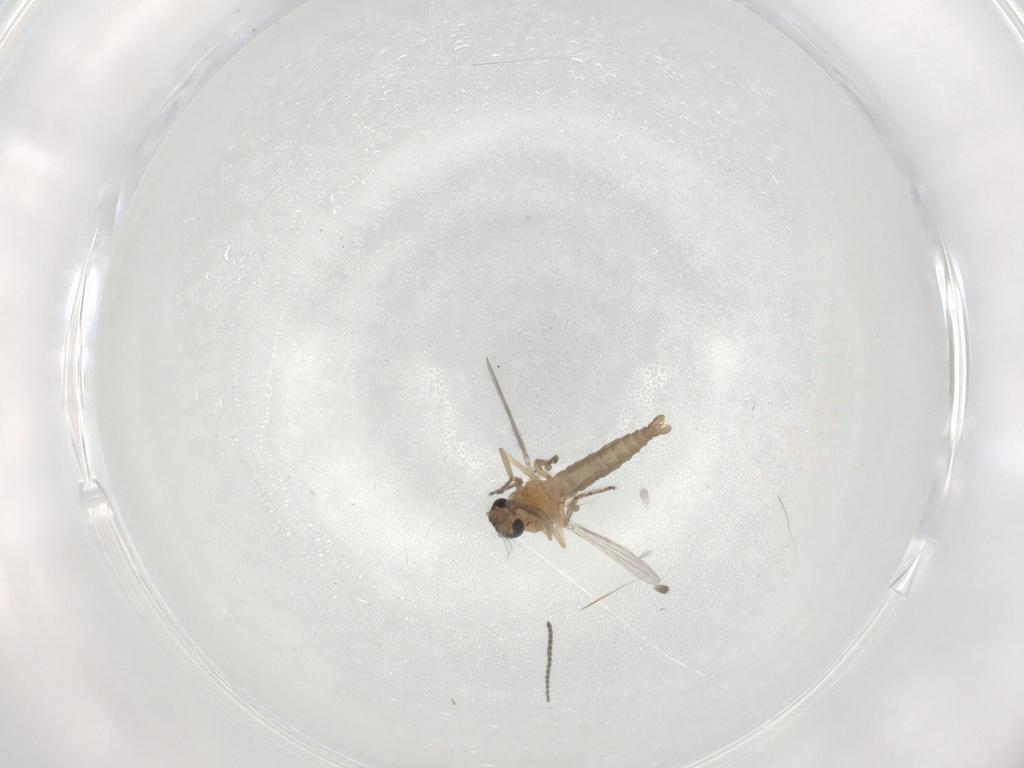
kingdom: Animalia
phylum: Arthropoda
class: Insecta
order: Diptera
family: Ceratopogonidae
